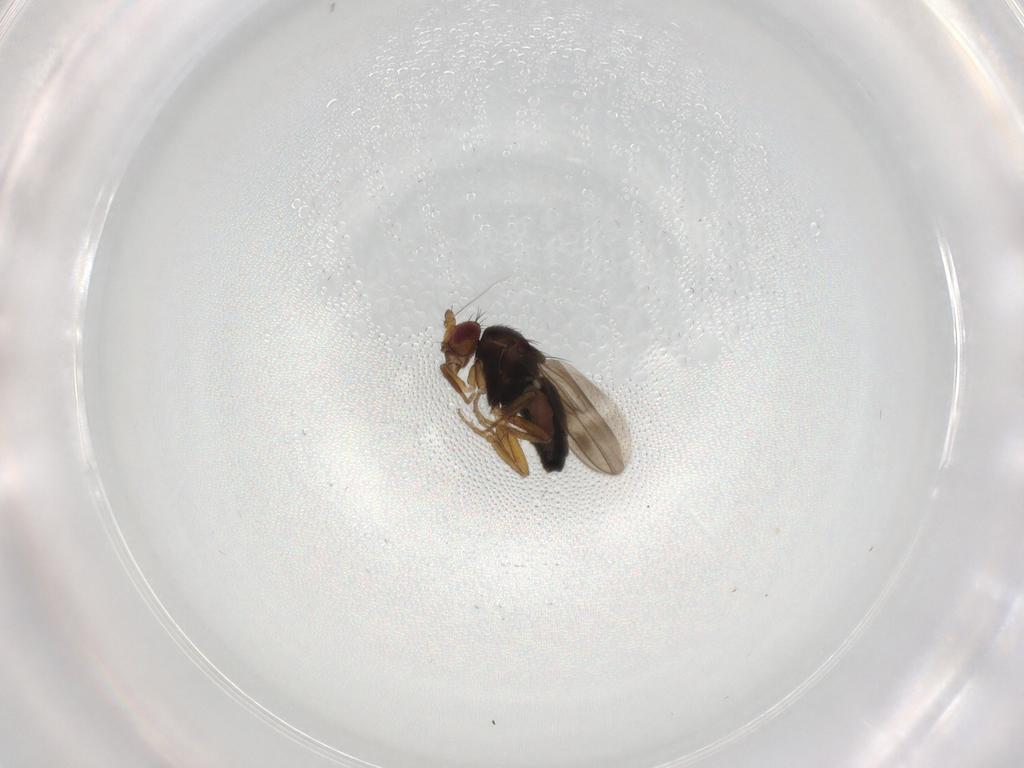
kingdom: Animalia
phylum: Arthropoda
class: Insecta
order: Diptera
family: Sphaeroceridae
